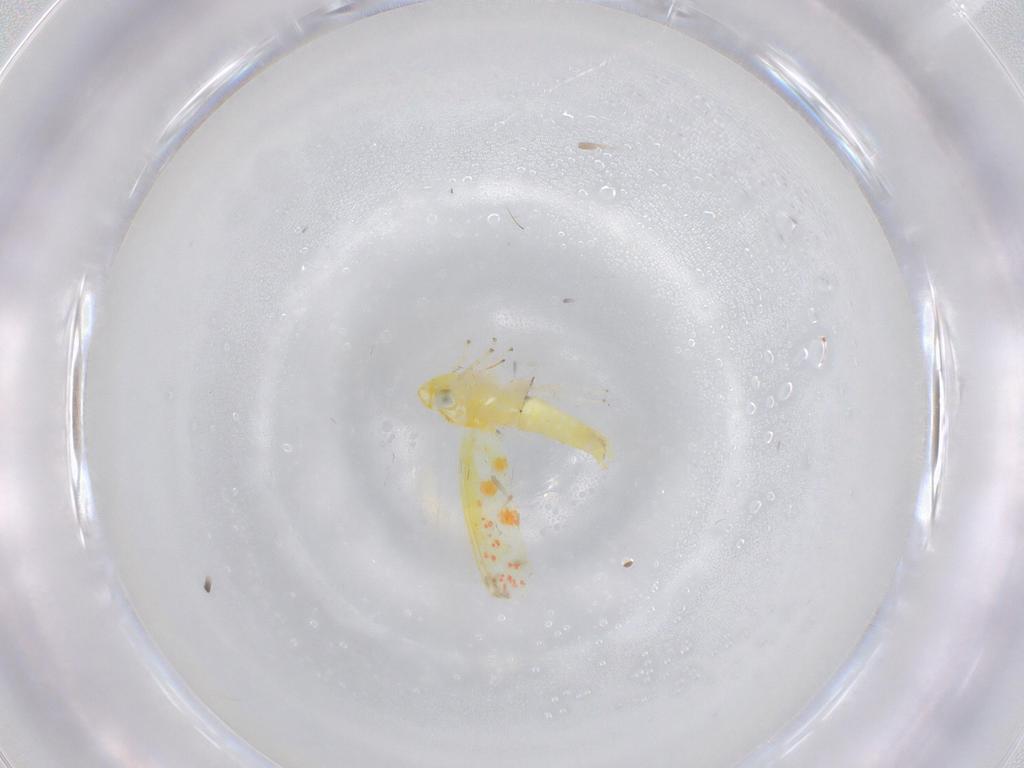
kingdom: Animalia
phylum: Arthropoda
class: Insecta
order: Hemiptera
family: Cicadellidae
